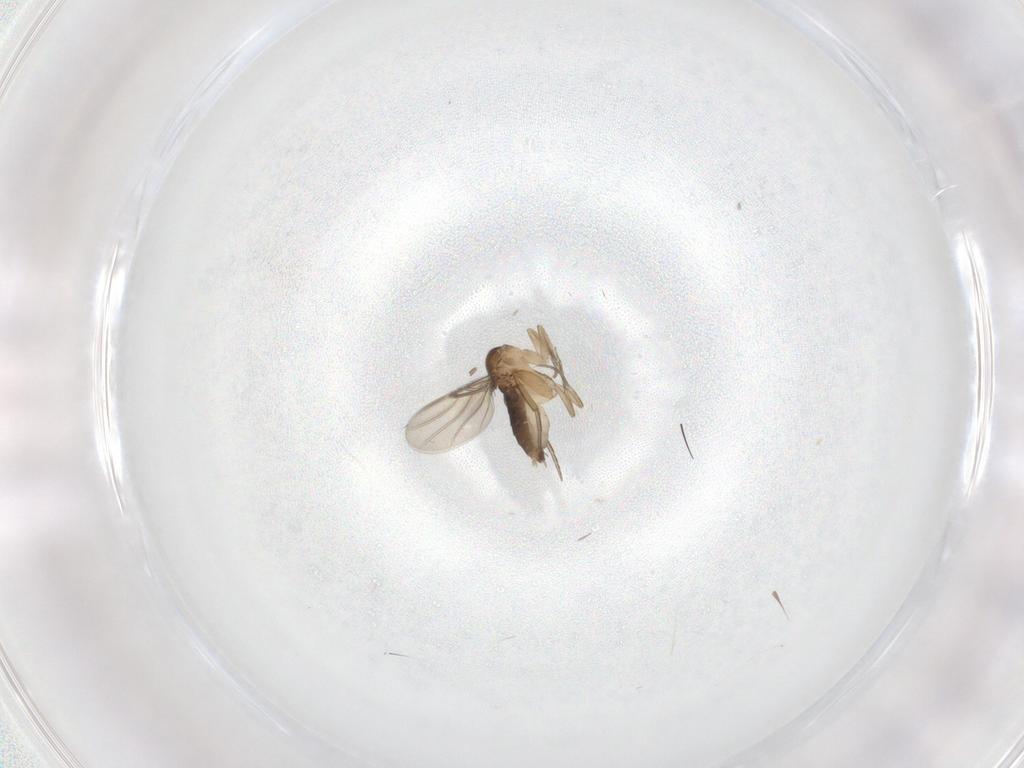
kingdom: Animalia
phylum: Arthropoda
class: Insecta
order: Diptera
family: Phoridae
